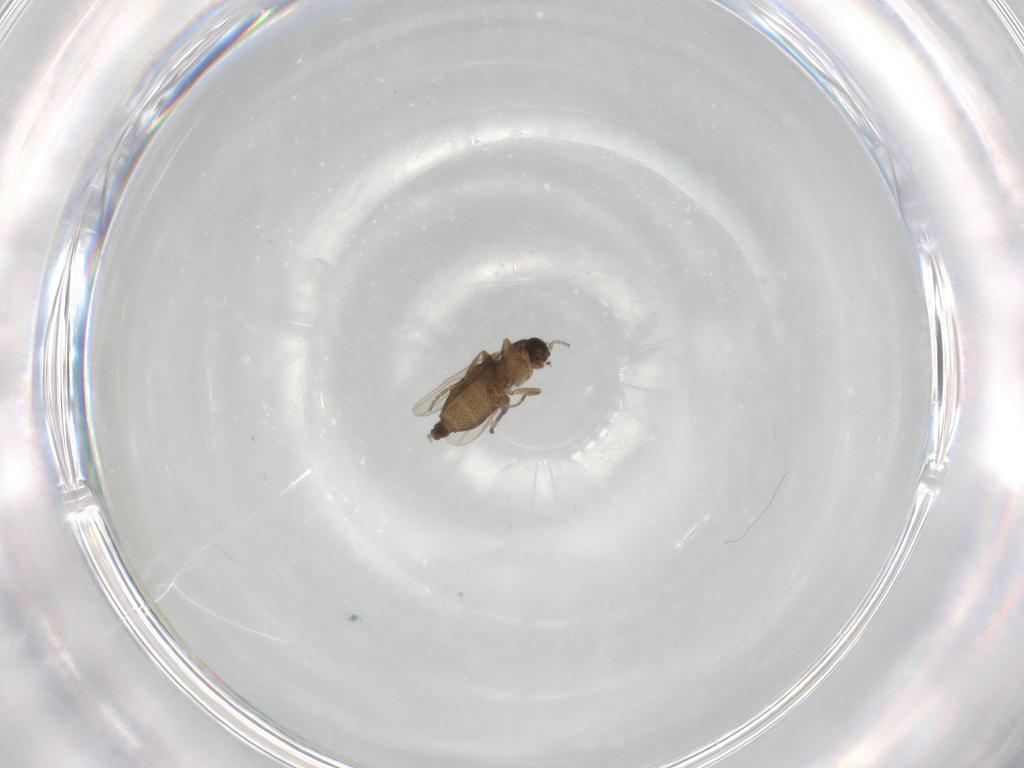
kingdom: Animalia
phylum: Arthropoda
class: Insecta
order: Diptera
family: Phoridae
